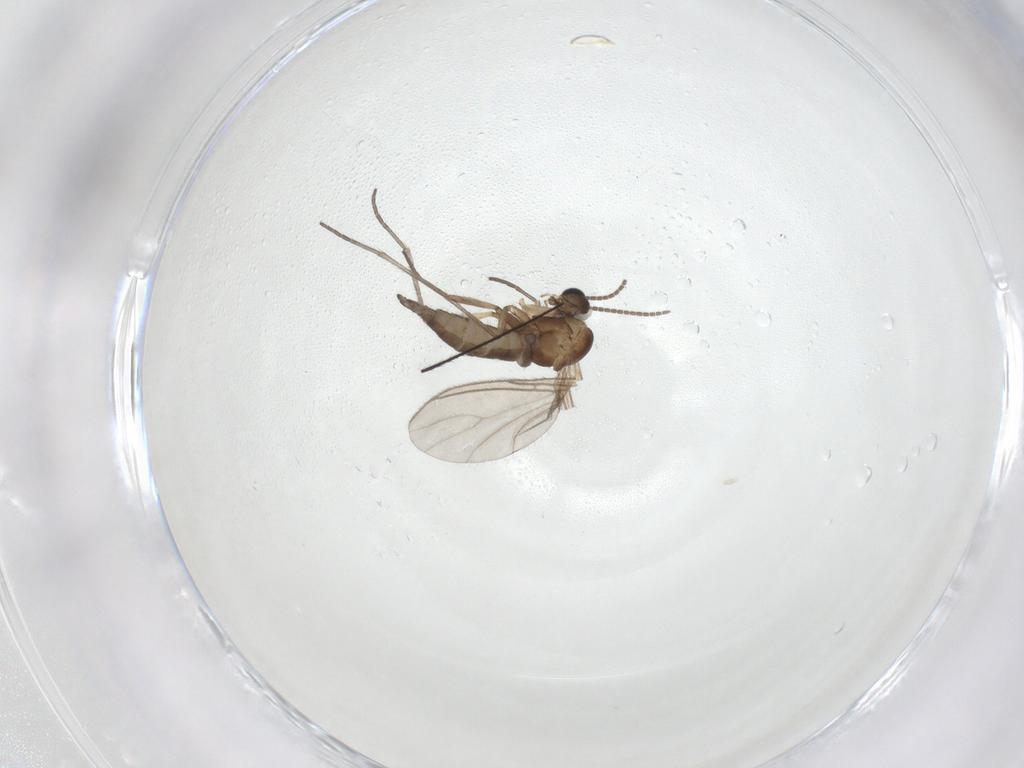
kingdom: Animalia
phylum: Arthropoda
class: Insecta
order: Diptera
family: Sciaridae
